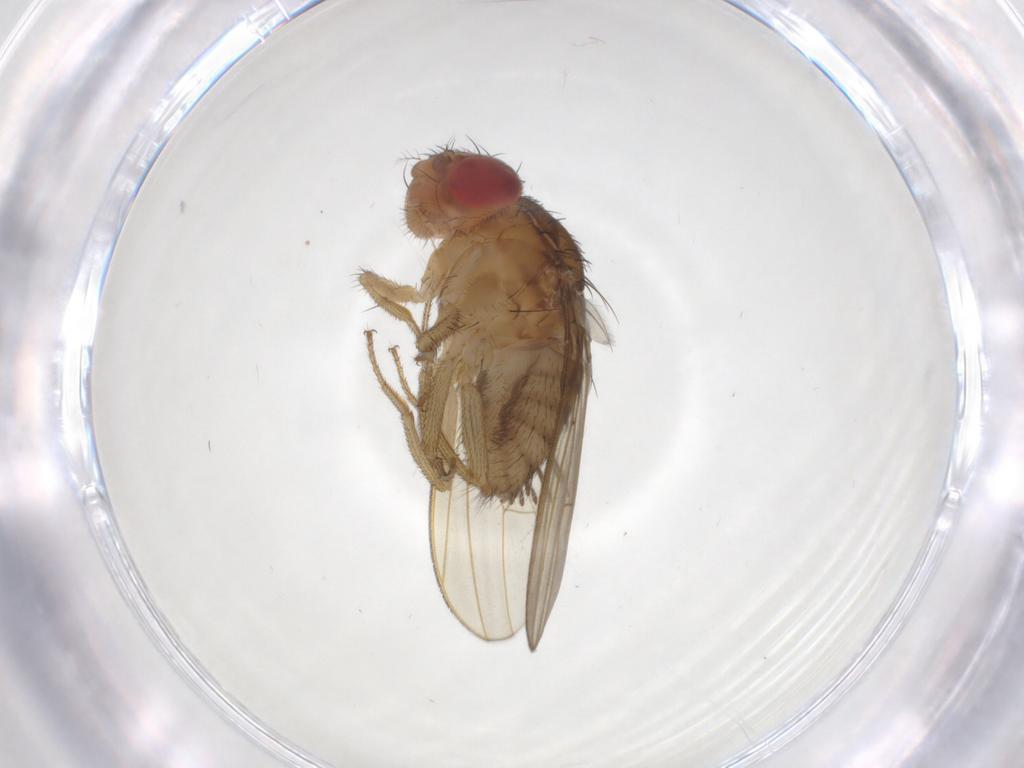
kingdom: Animalia
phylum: Arthropoda
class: Insecta
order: Diptera
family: Drosophilidae
